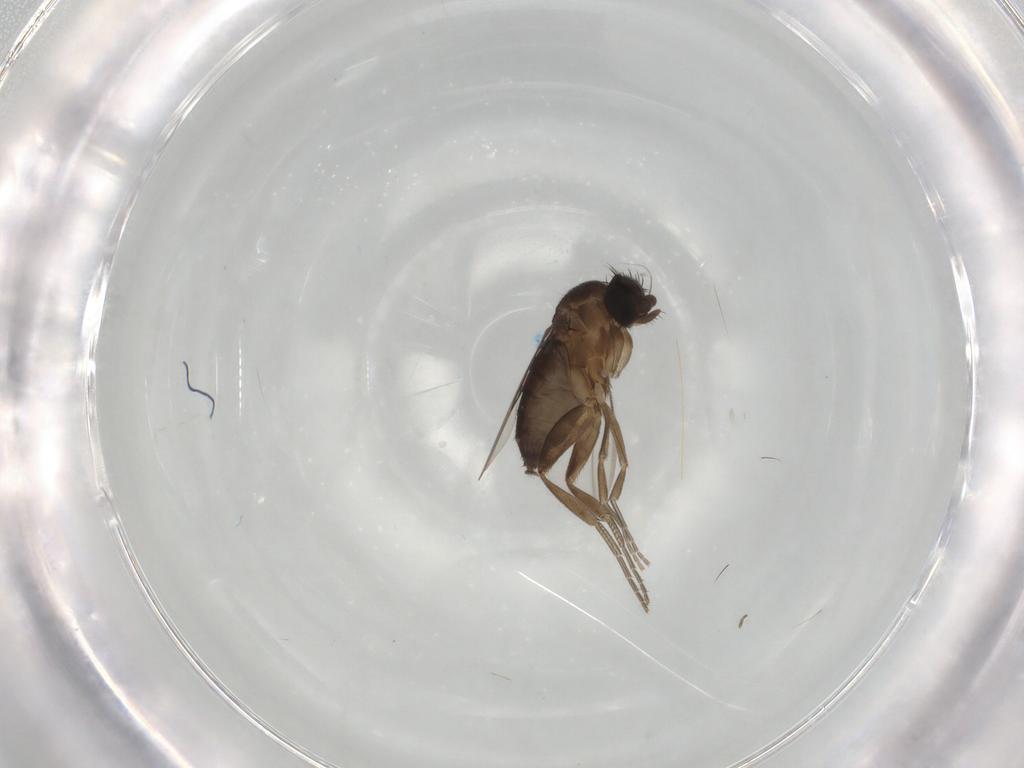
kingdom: Animalia
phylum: Arthropoda
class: Insecta
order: Diptera
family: Phoridae
